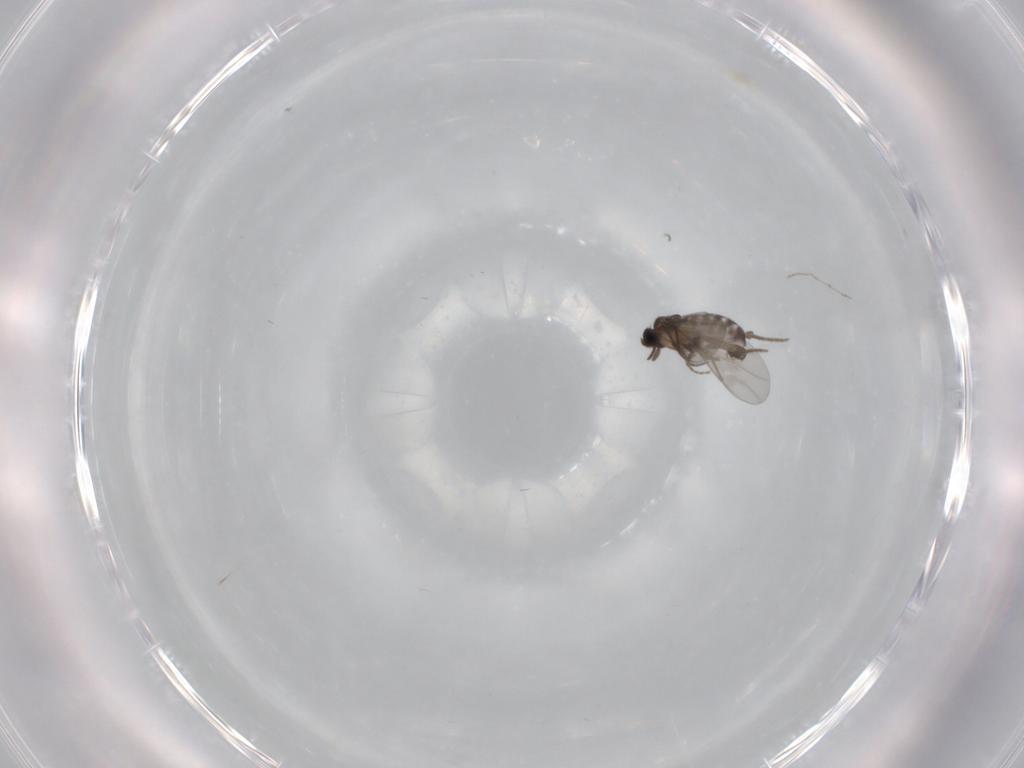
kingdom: Animalia
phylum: Arthropoda
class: Insecta
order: Diptera
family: Cecidomyiidae
